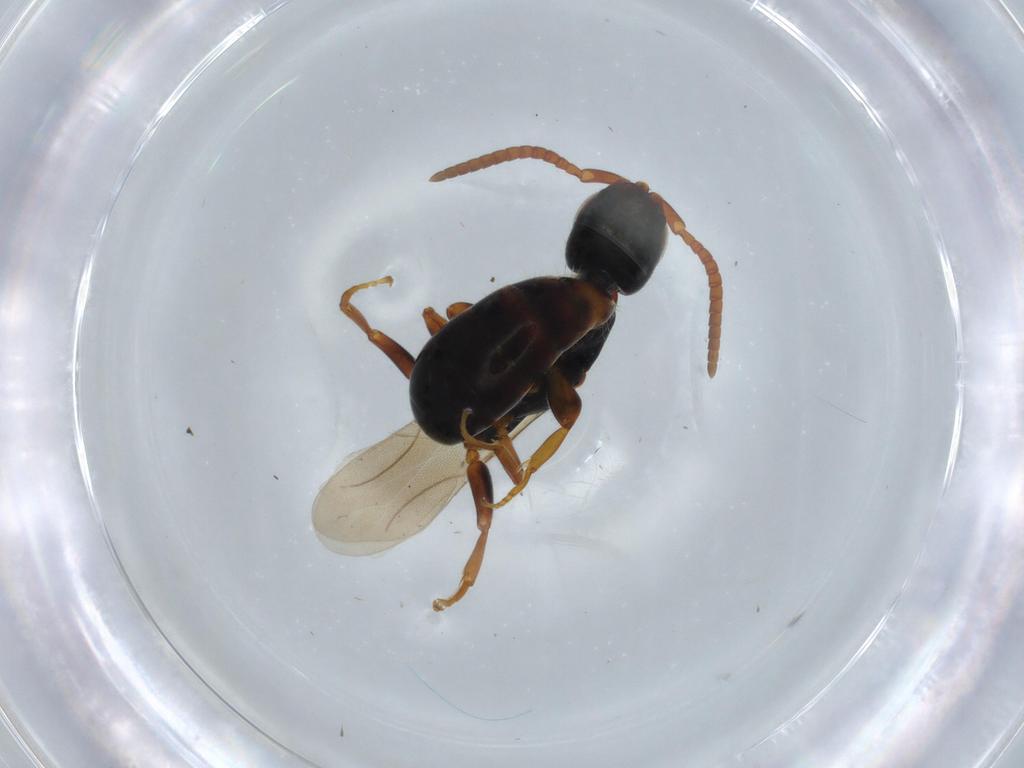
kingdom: Animalia
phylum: Arthropoda
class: Insecta
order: Hymenoptera
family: Bethylidae
